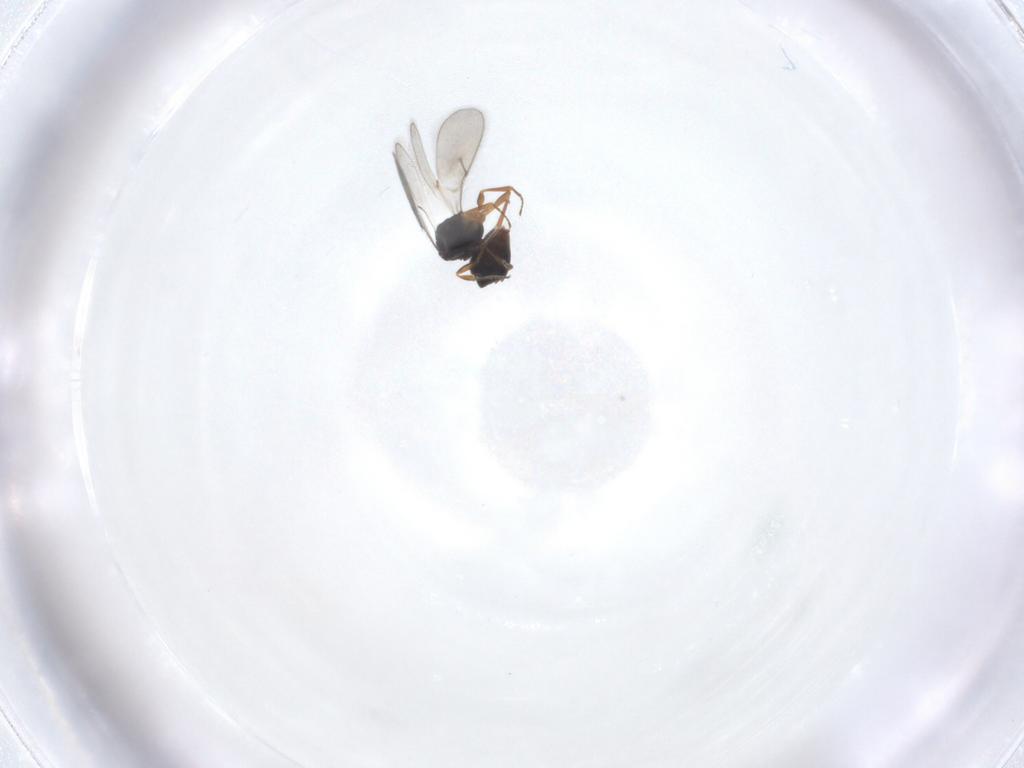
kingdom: Animalia
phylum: Arthropoda
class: Insecta
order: Hymenoptera
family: Scelionidae
